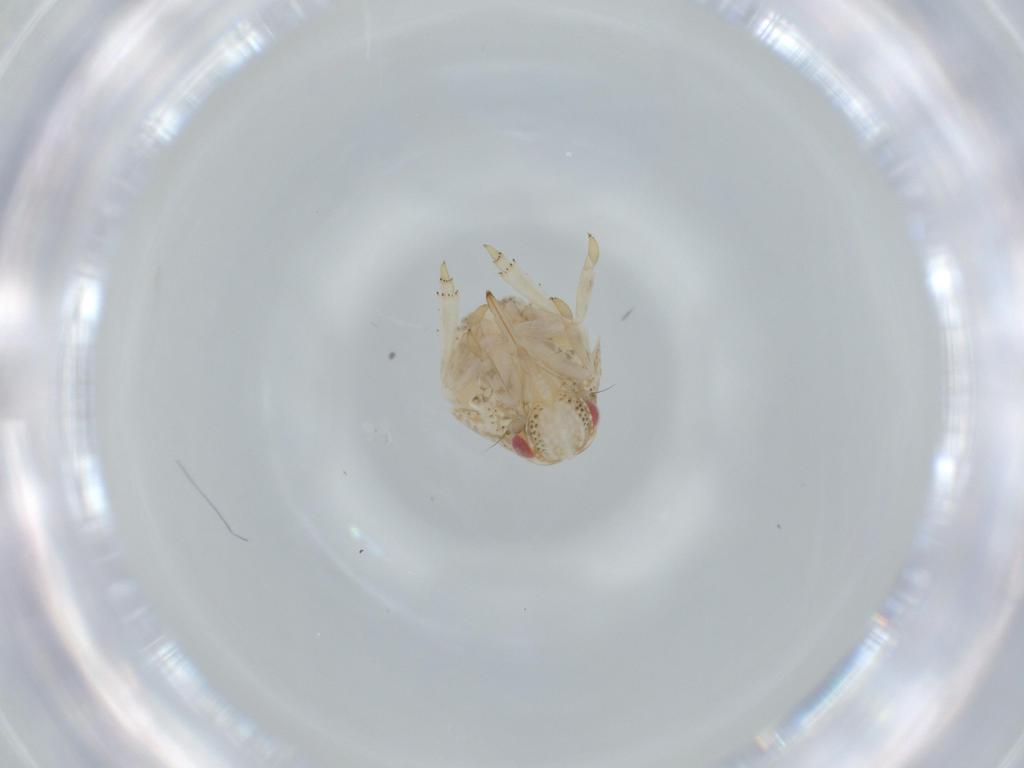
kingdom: Animalia
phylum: Arthropoda
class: Insecta
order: Hemiptera
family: Acanaloniidae
